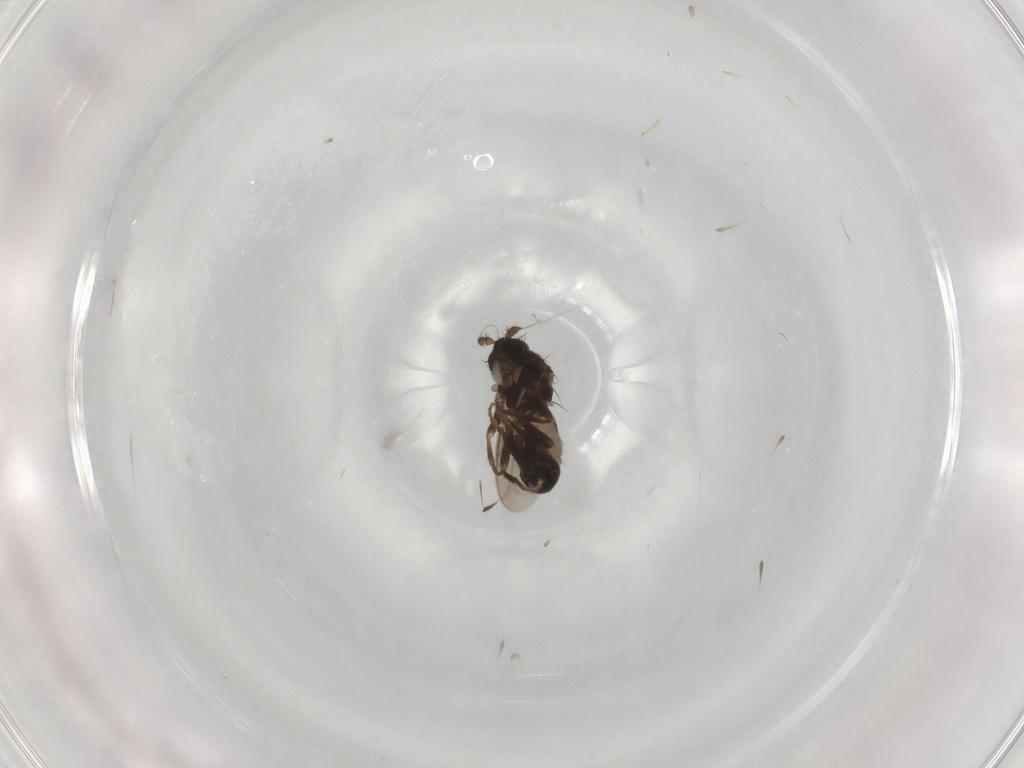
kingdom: Animalia
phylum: Arthropoda
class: Insecta
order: Diptera
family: Sphaeroceridae
